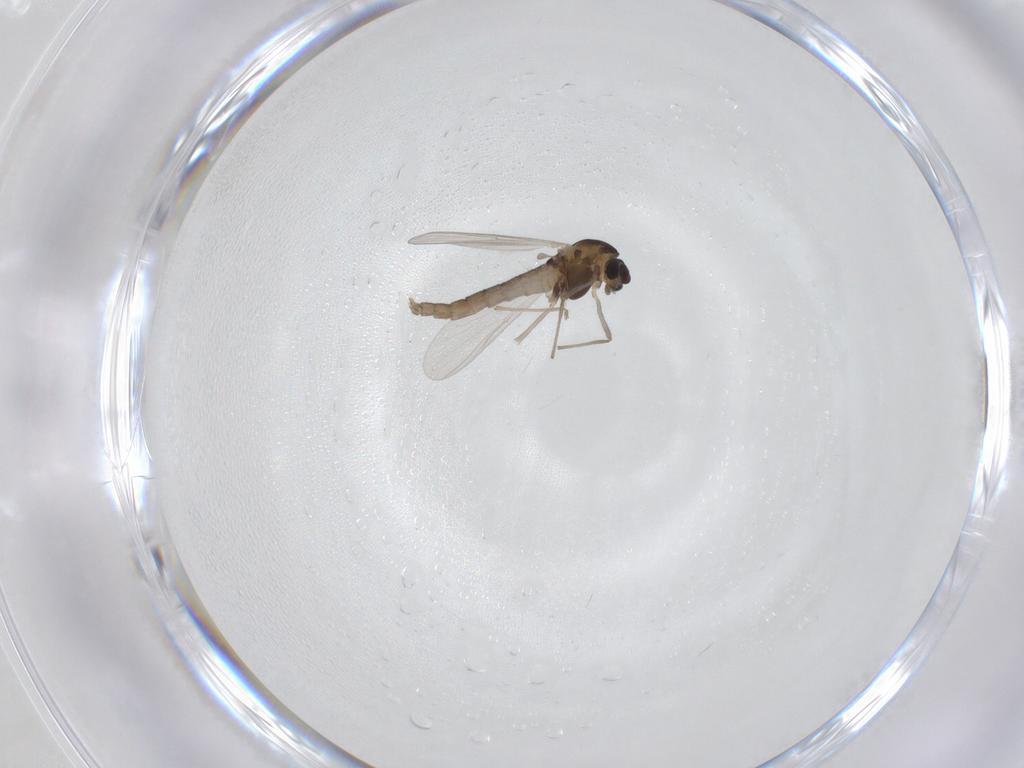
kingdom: Animalia
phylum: Arthropoda
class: Insecta
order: Diptera
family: Chironomidae
